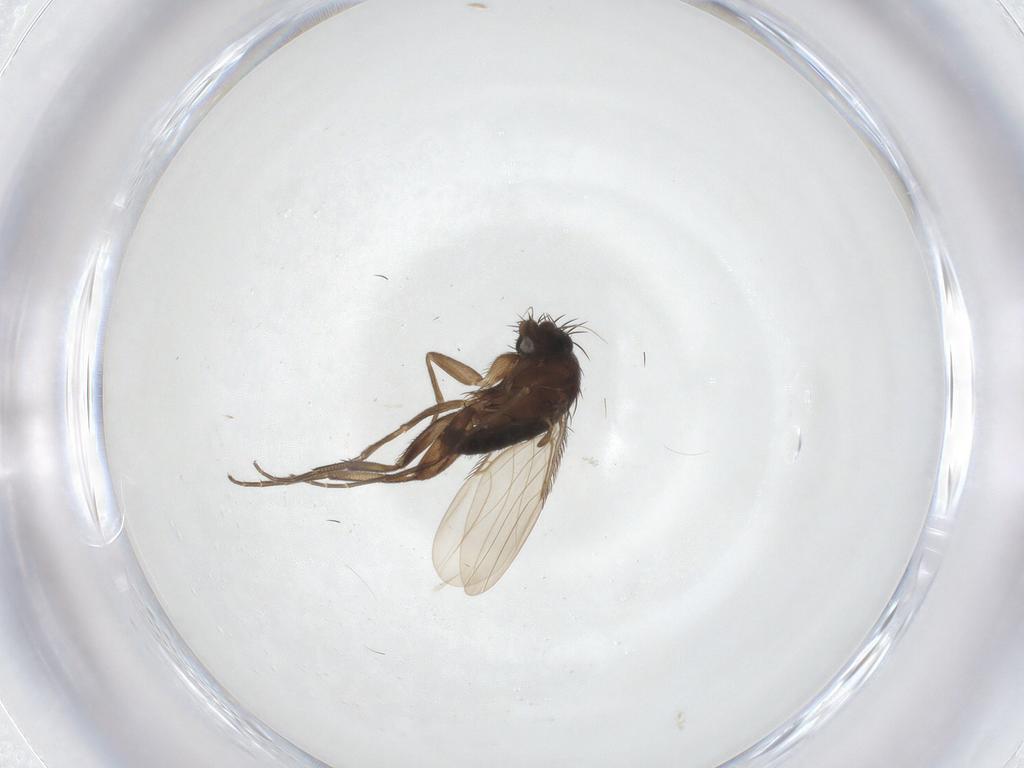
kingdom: Animalia
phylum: Arthropoda
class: Insecta
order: Diptera
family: Phoridae
